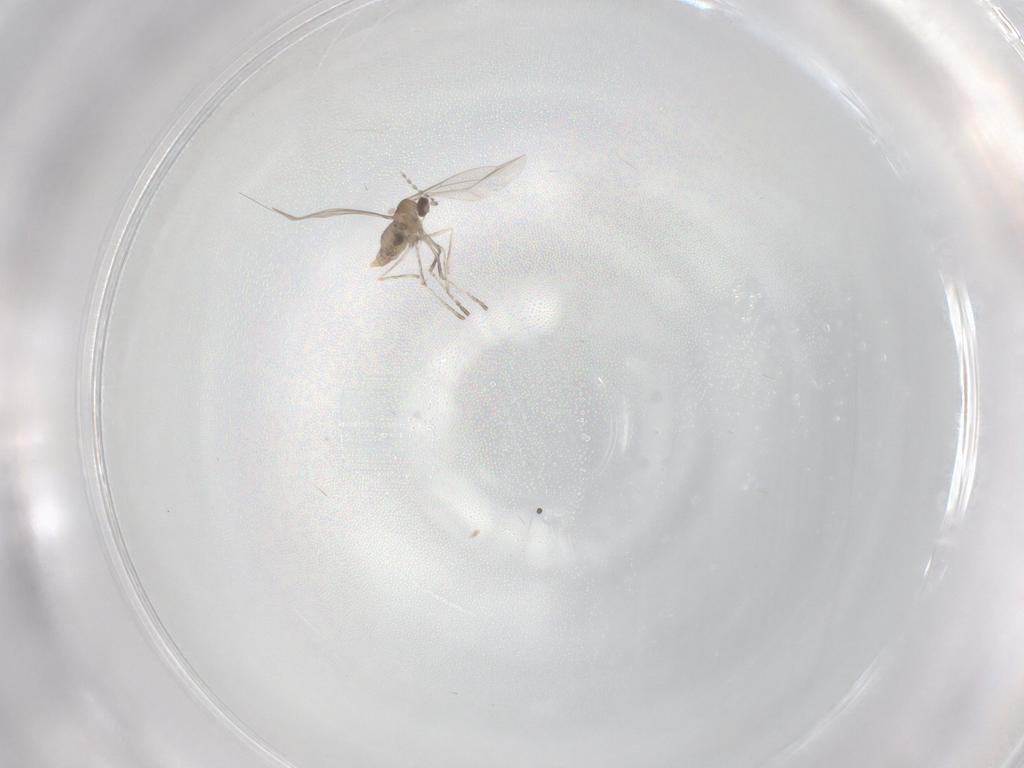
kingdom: Animalia
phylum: Arthropoda
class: Insecta
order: Diptera
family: Cecidomyiidae
